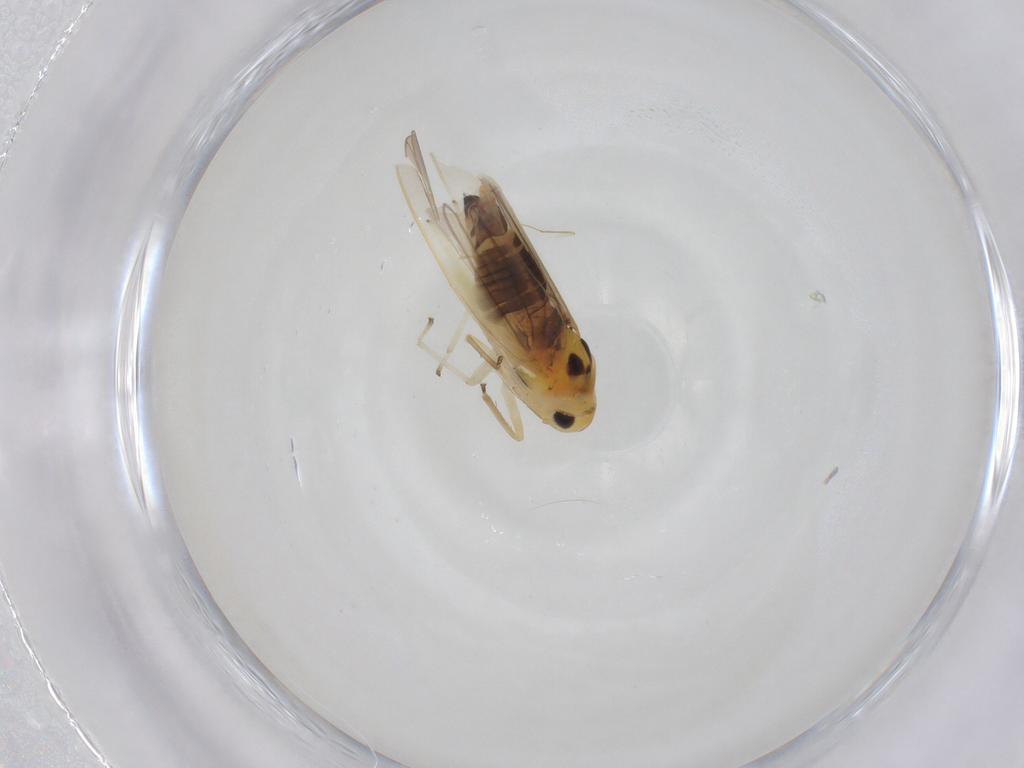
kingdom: Animalia
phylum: Arthropoda
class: Insecta
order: Hemiptera
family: Cicadellidae
